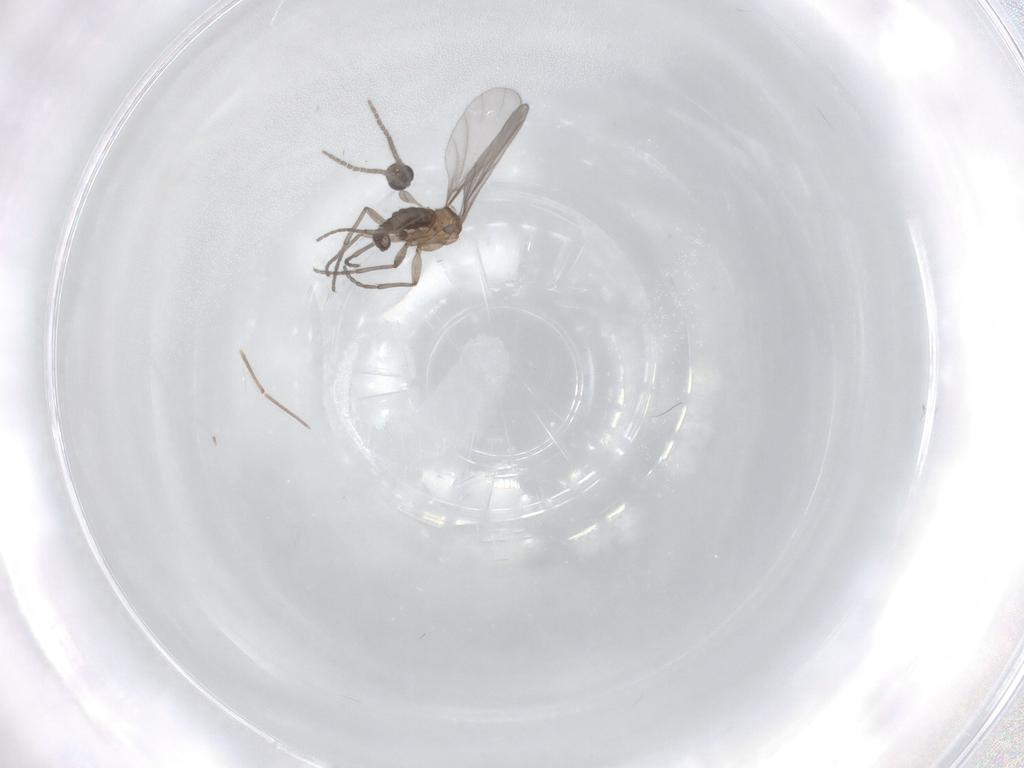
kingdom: Animalia
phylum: Arthropoda
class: Insecta
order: Diptera
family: Sciaridae
